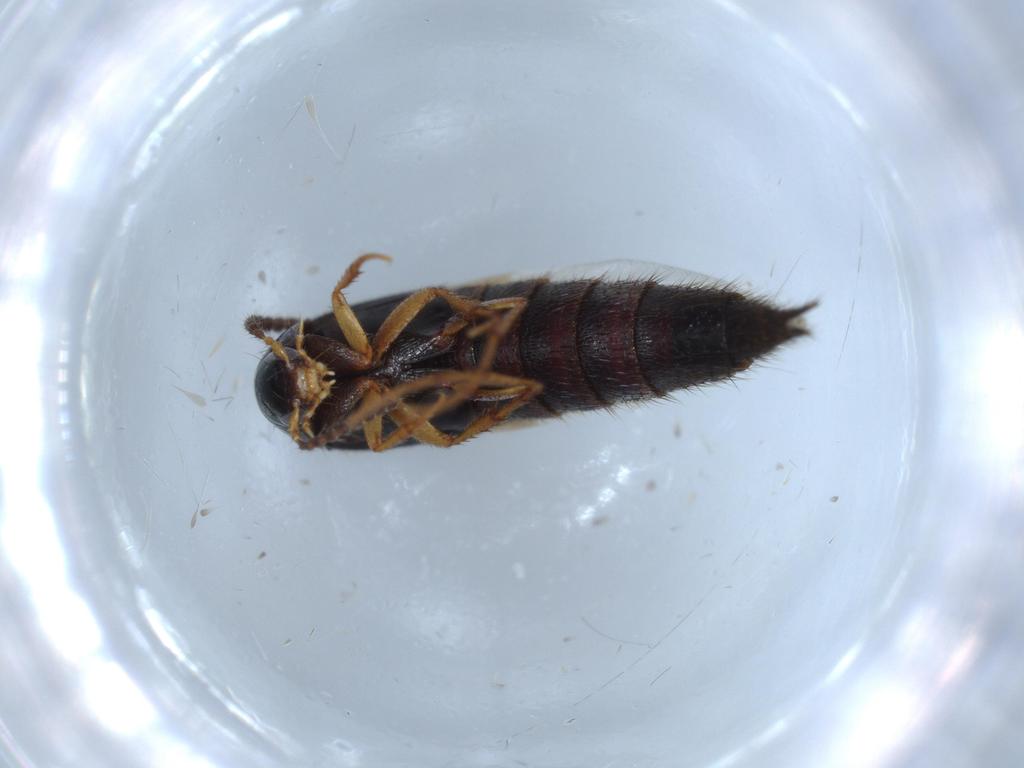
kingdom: Animalia
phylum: Arthropoda
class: Insecta
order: Coleoptera
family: Staphylinidae
